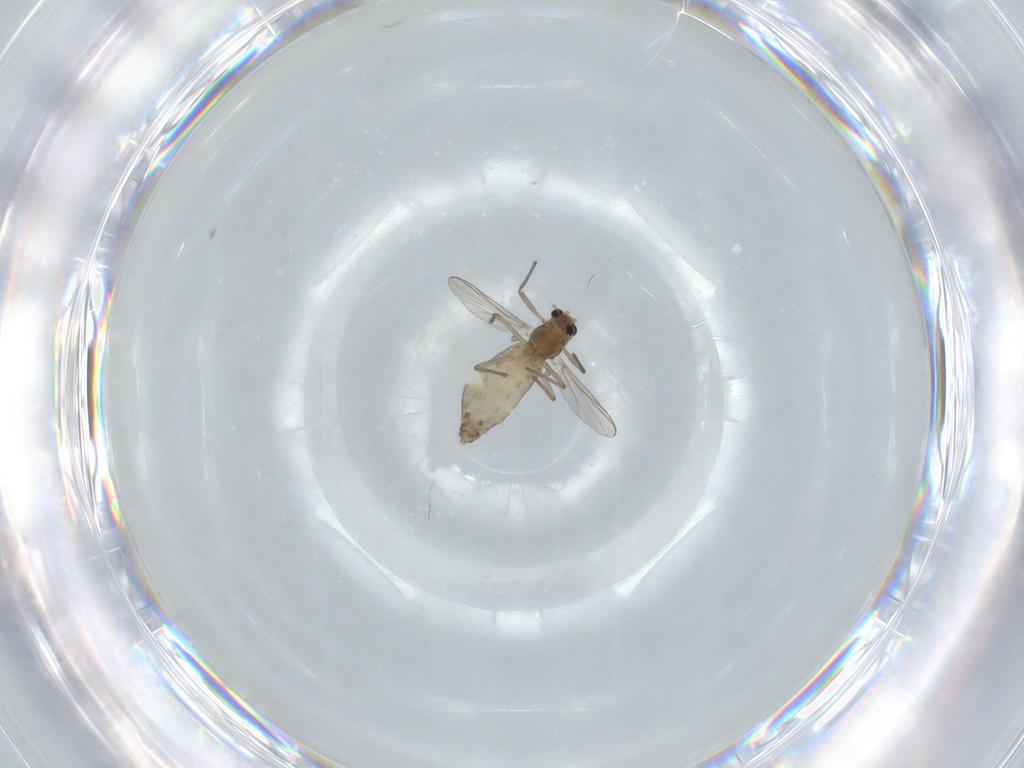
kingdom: Animalia
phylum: Arthropoda
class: Insecta
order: Diptera
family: Chironomidae
